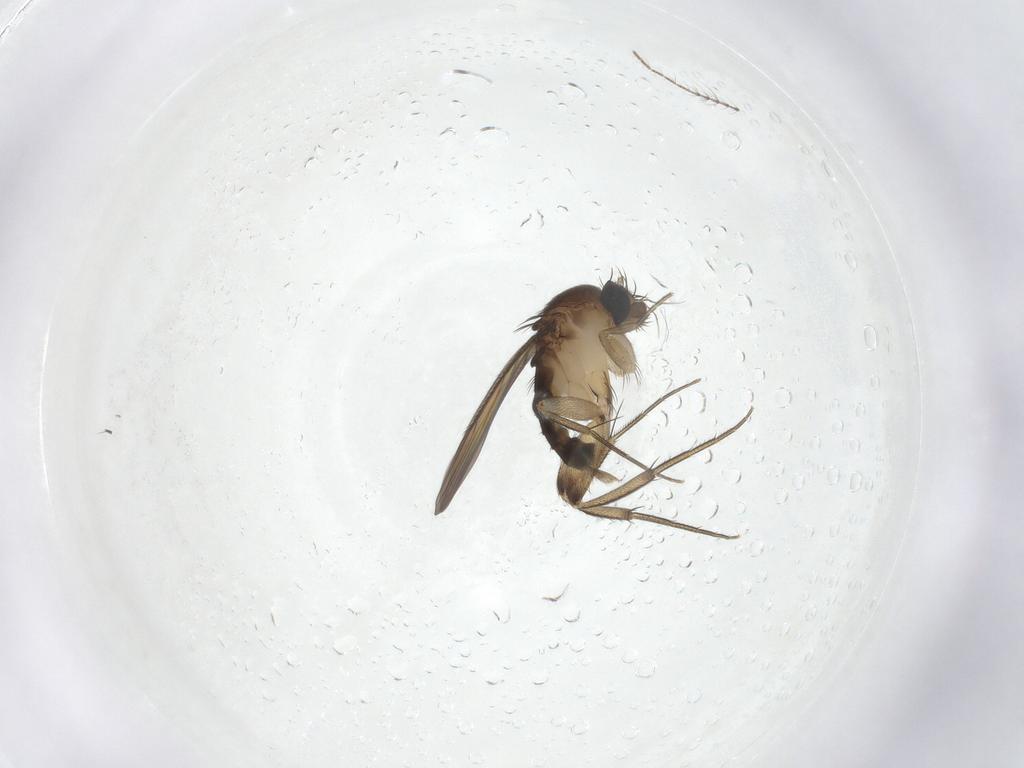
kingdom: Animalia
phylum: Arthropoda
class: Insecta
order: Diptera
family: Phoridae
